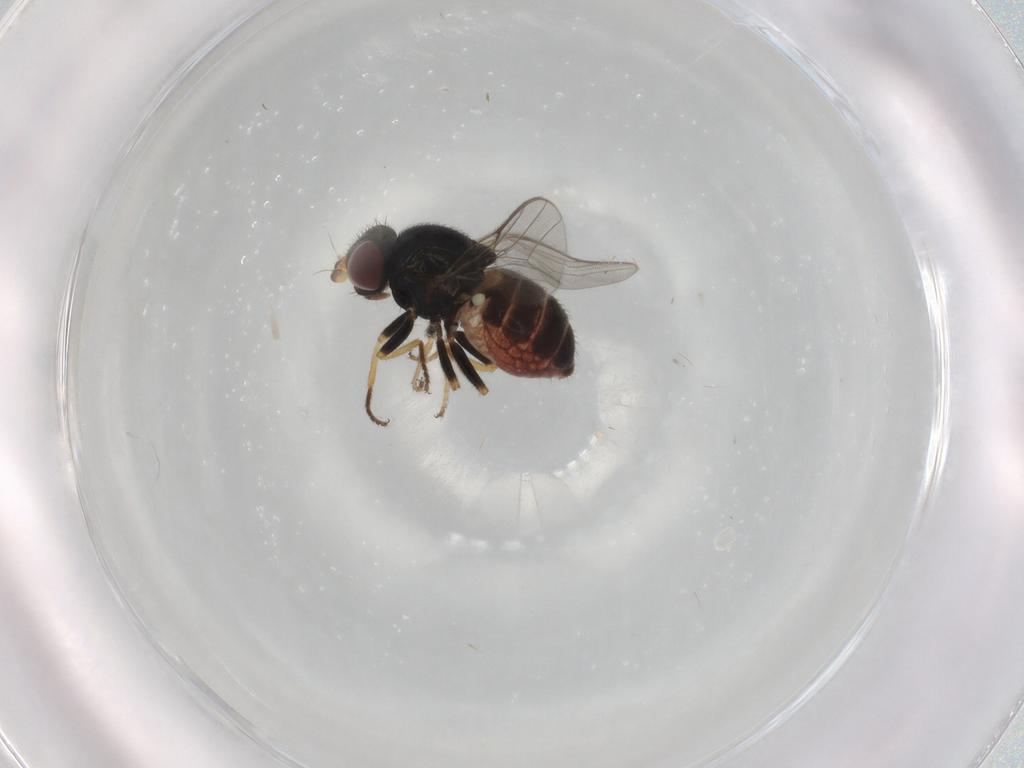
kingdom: Animalia
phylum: Arthropoda
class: Insecta
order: Diptera
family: Chloropidae
